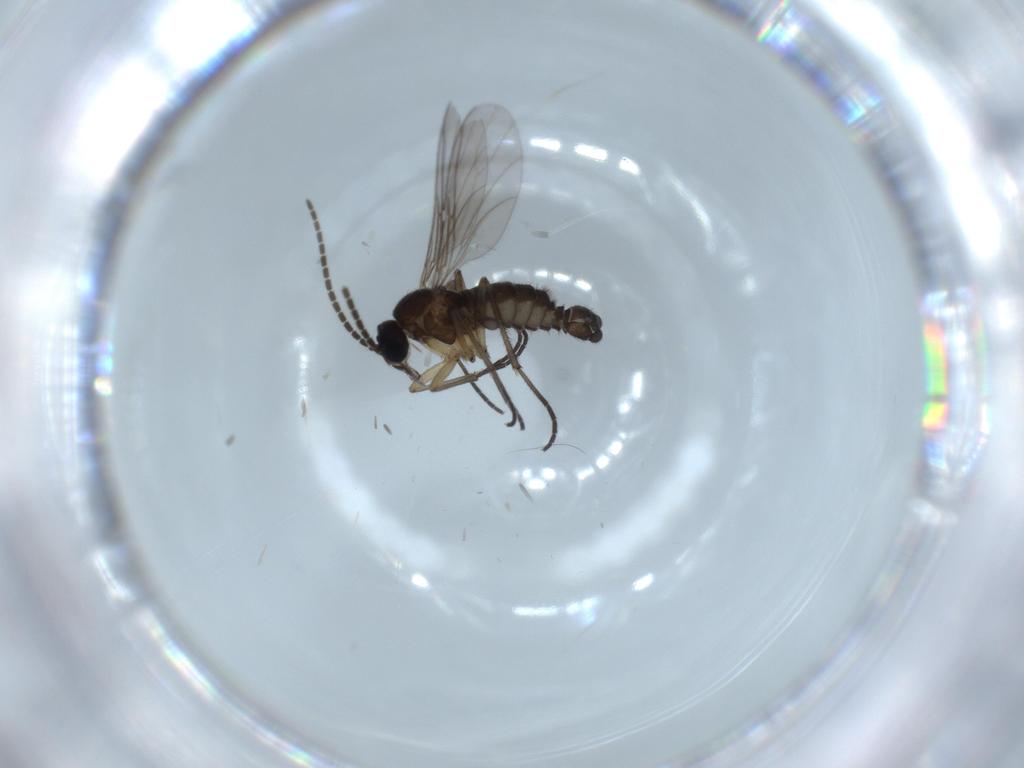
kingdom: Animalia
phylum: Arthropoda
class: Insecta
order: Diptera
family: Sciaridae
